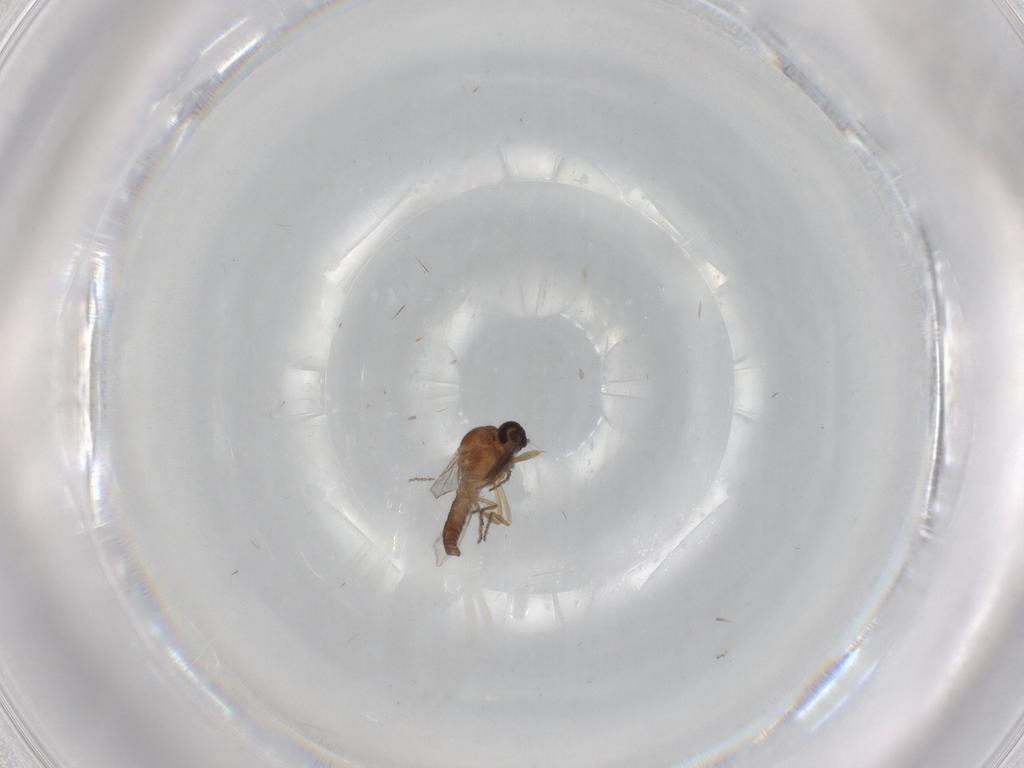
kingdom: Animalia
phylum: Arthropoda
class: Insecta
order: Diptera
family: Ceratopogonidae
